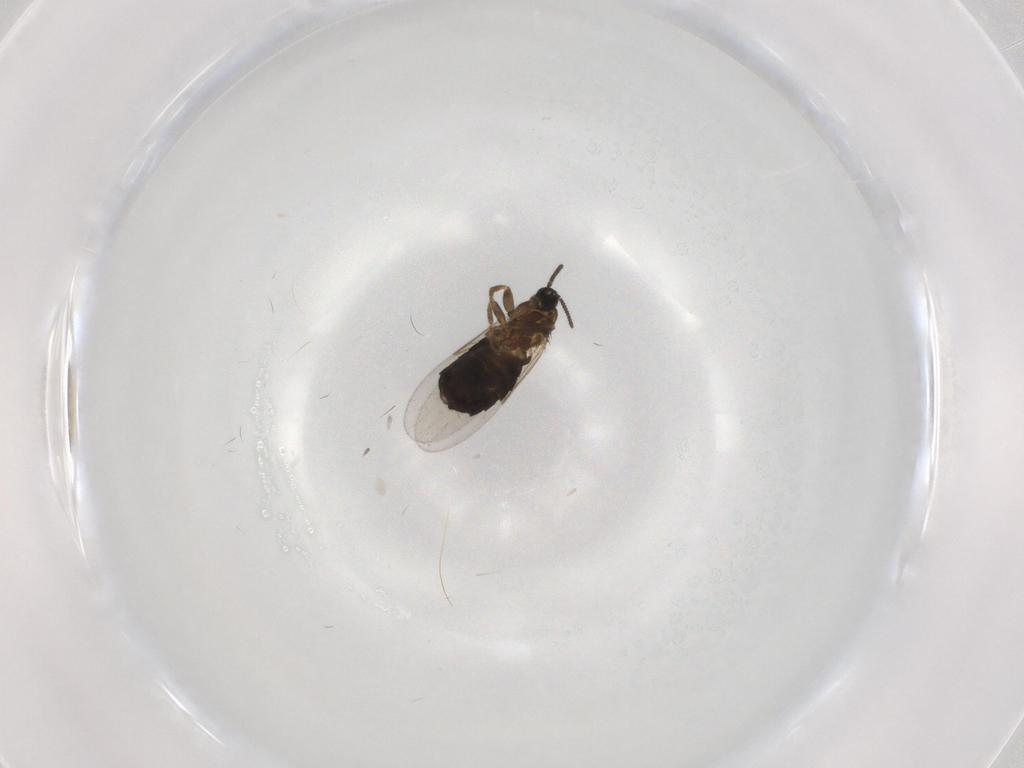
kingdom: Animalia
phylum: Arthropoda
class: Insecta
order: Diptera
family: Scatopsidae
